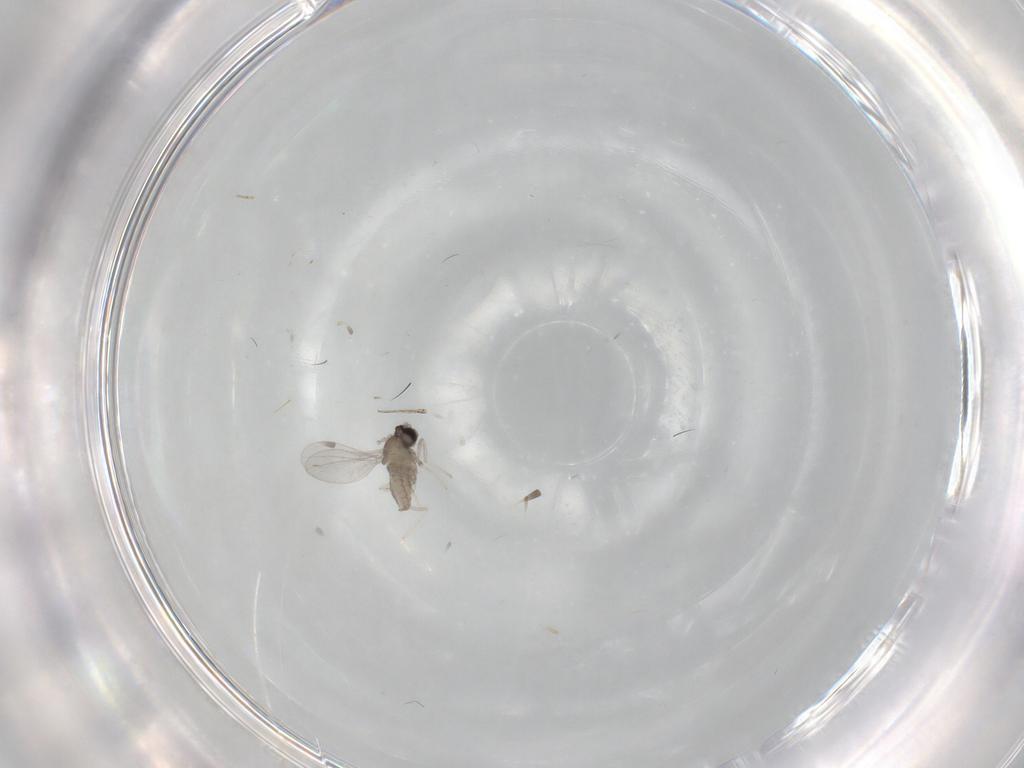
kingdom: Animalia
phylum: Arthropoda
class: Insecta
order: Diptera
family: Cecidomyiidae
